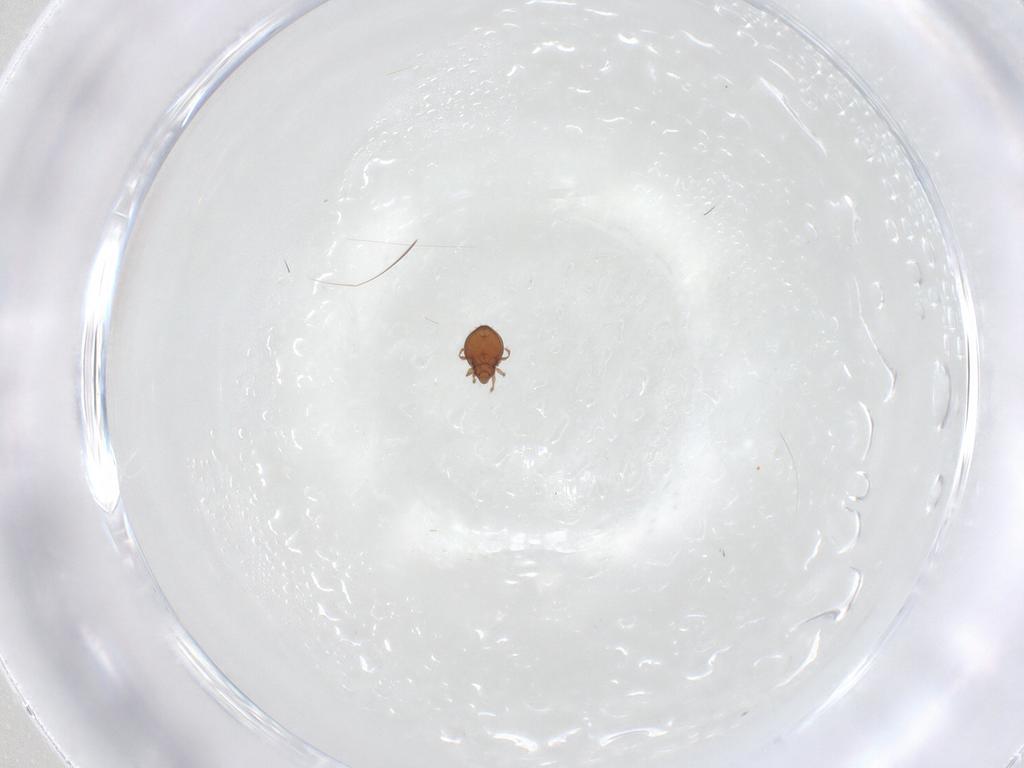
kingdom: Animalia
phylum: Arthropoda
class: Arachnida
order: Sarcoptiformes
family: Oribatulidae
